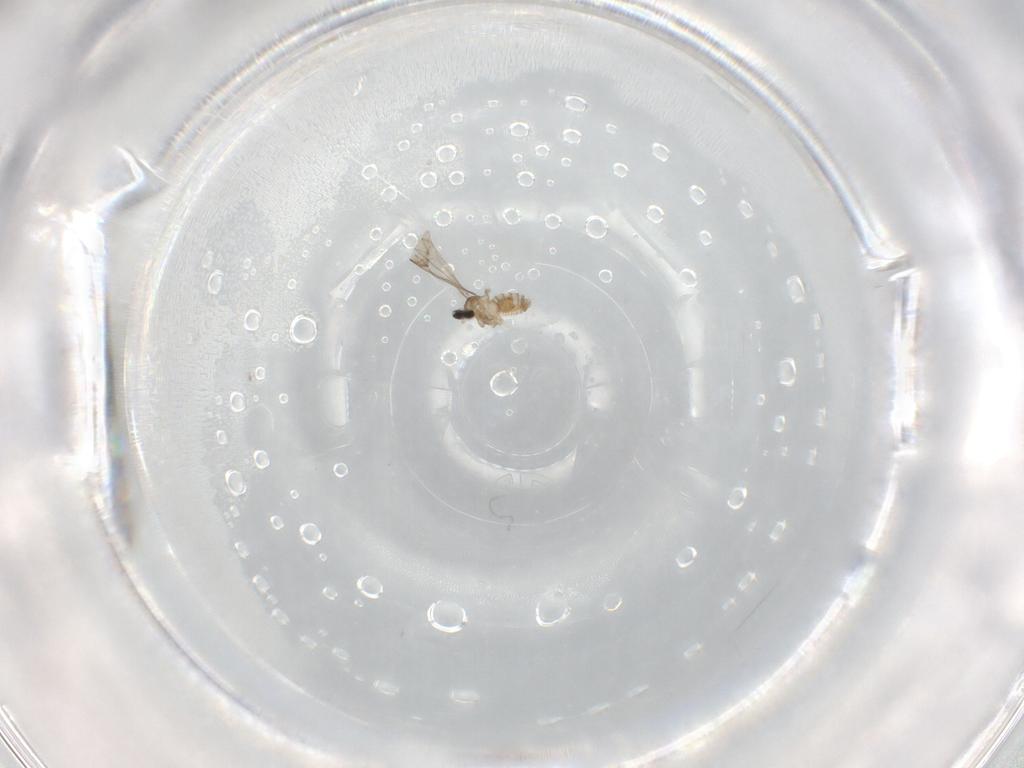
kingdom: Animalia
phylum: Arthropoda
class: Insecta
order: Diptera
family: Cecidomyiidae
